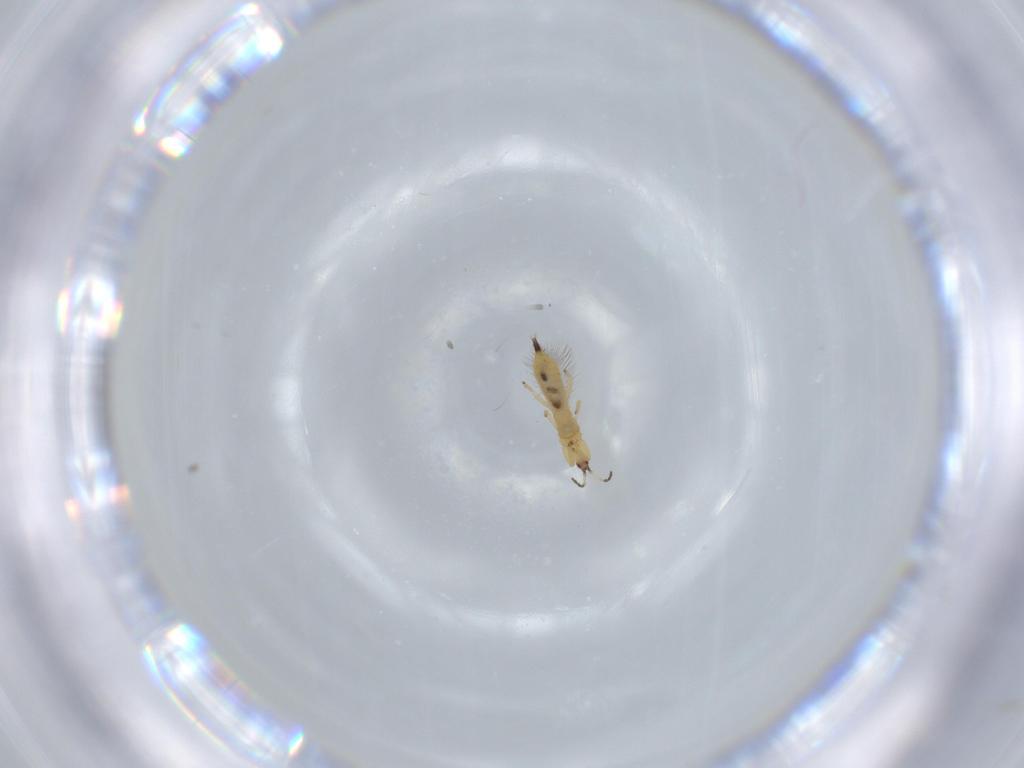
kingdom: Animalia
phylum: Arthropoda
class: Insecta
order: Thysanoptera
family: Phlaeothripidae
